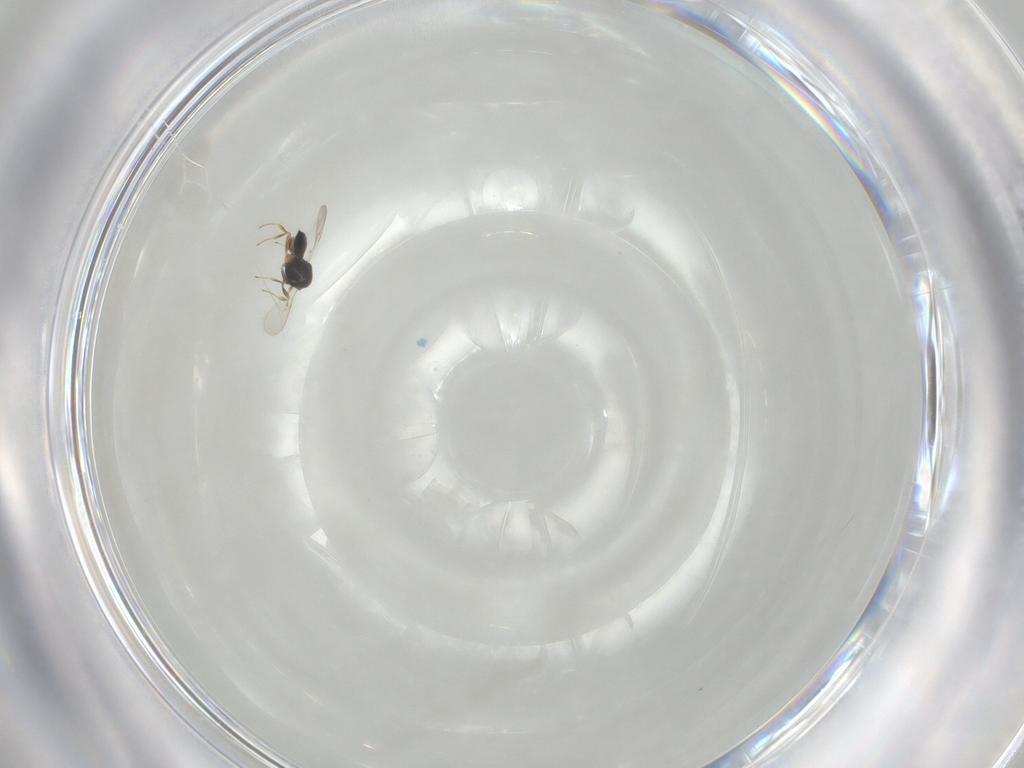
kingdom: Animalia
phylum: Arthropoda
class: Insecta
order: Hymenoptera
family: Scelionidae
